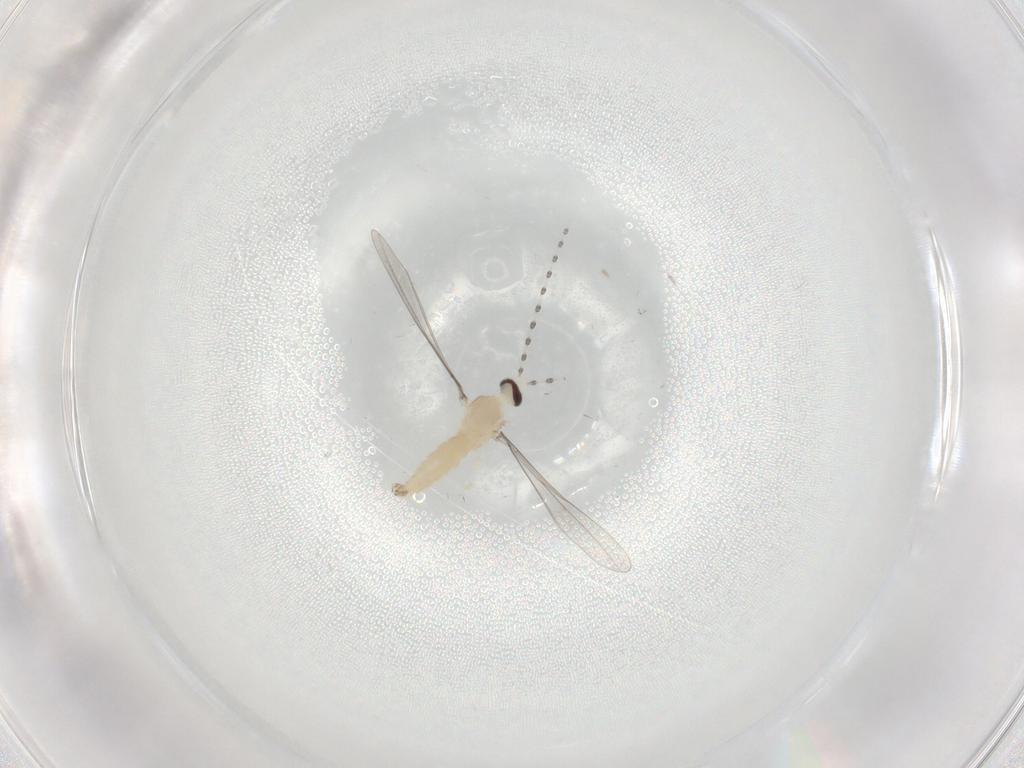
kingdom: Animalia
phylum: Arthropoda
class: Insecta
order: Diptera
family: Cecidomyiidae
